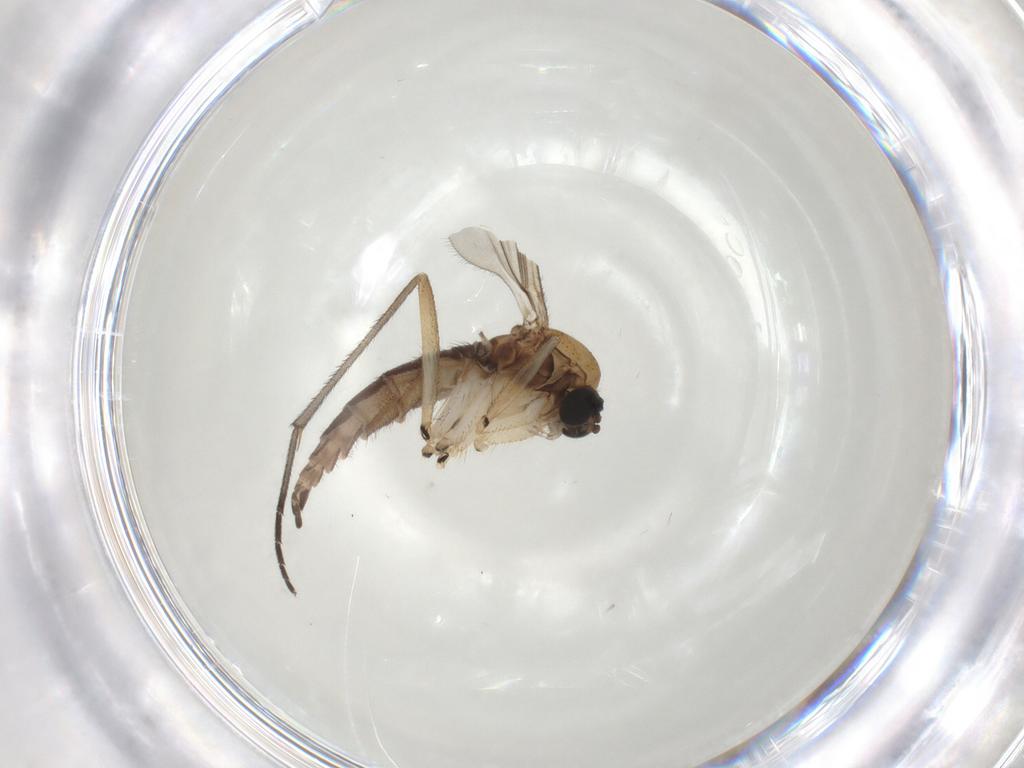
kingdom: Animalia
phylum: Arthropoda
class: Insecta
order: Diptera
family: Sciaridae
